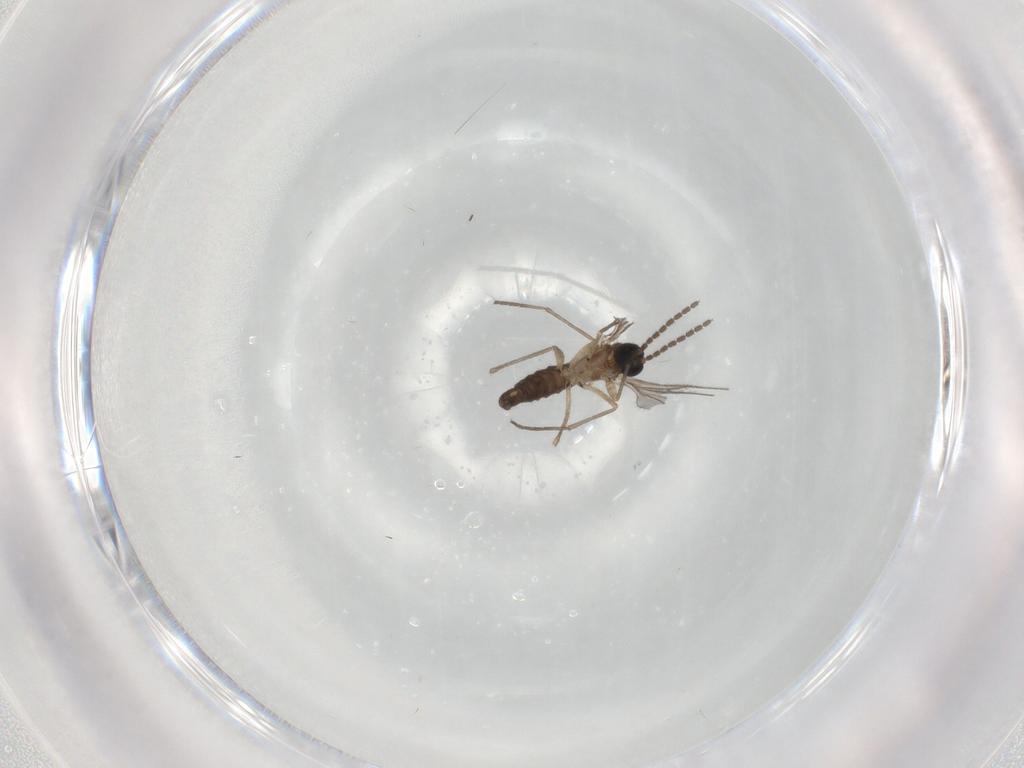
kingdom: Animalia
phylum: Arthropoda
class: Insecta
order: Diptera
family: Sciaridae
